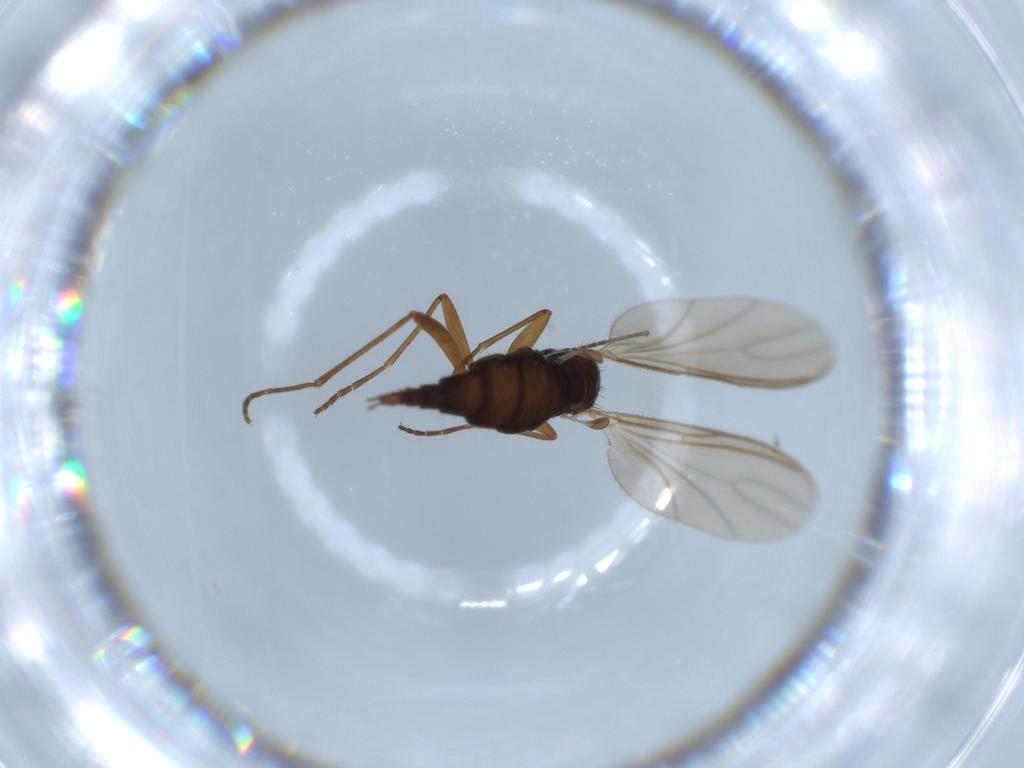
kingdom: Animalia
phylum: Arthropoda
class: Insecta
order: Diptera
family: Sciaridae
